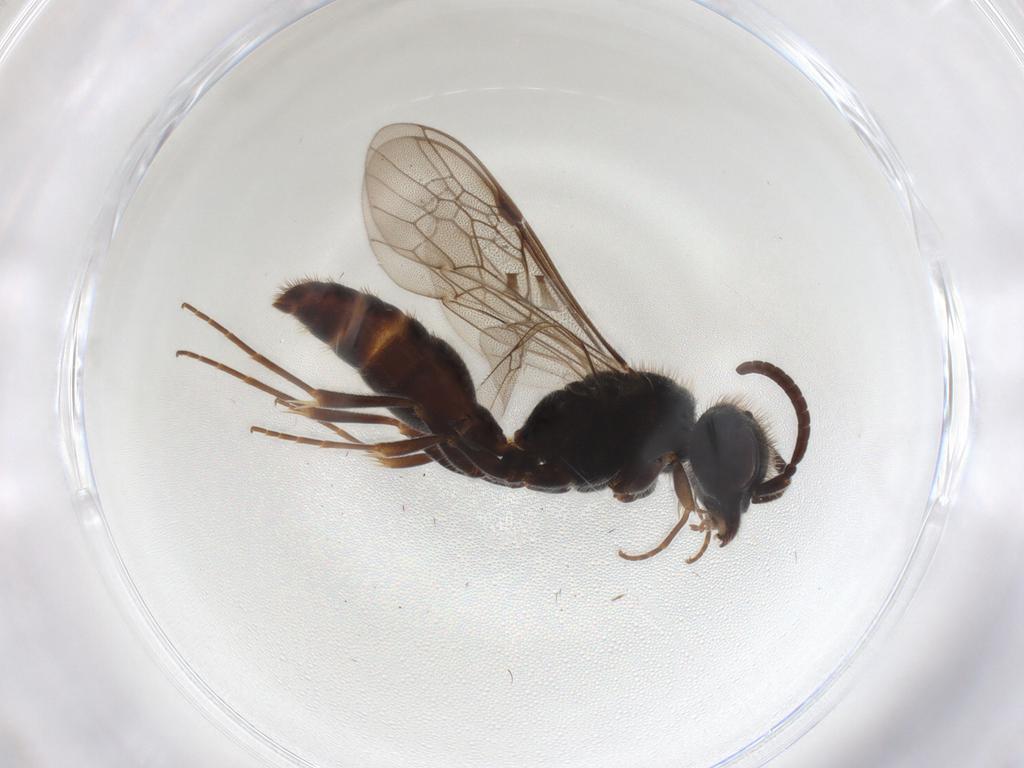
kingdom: Animalia
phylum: Arthropoda
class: Insecta
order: Hymenoptera
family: Myrmosidae
